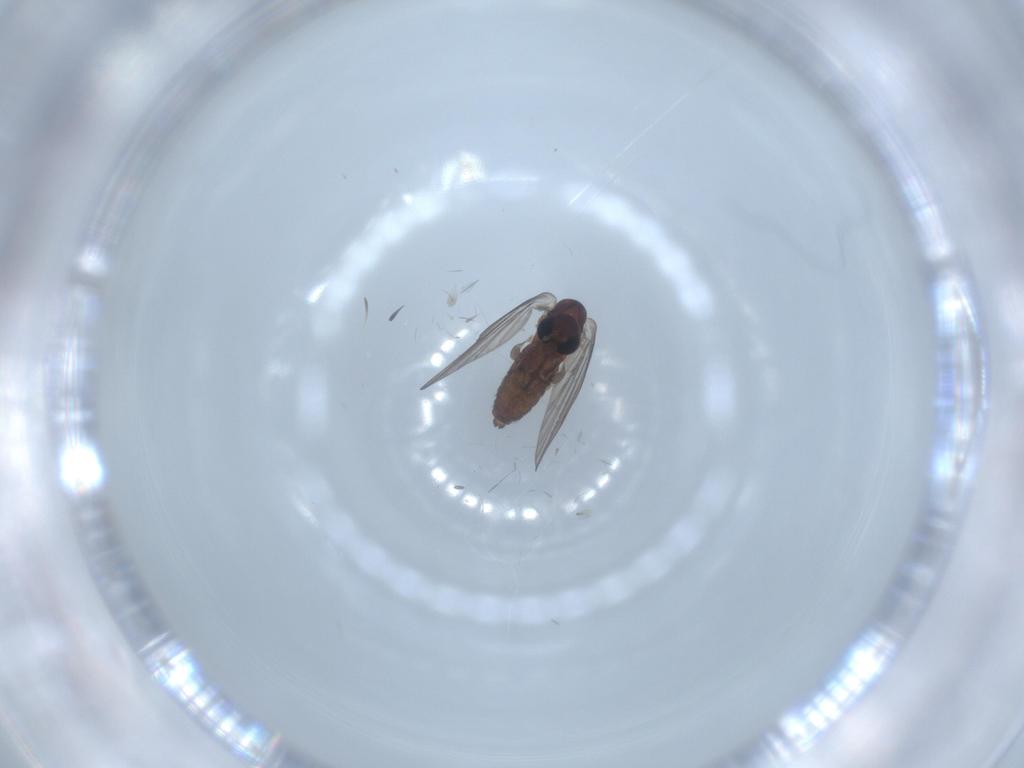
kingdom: Animalia
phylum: Arthropoda
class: Insecta
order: Diptera
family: Psychodidae
